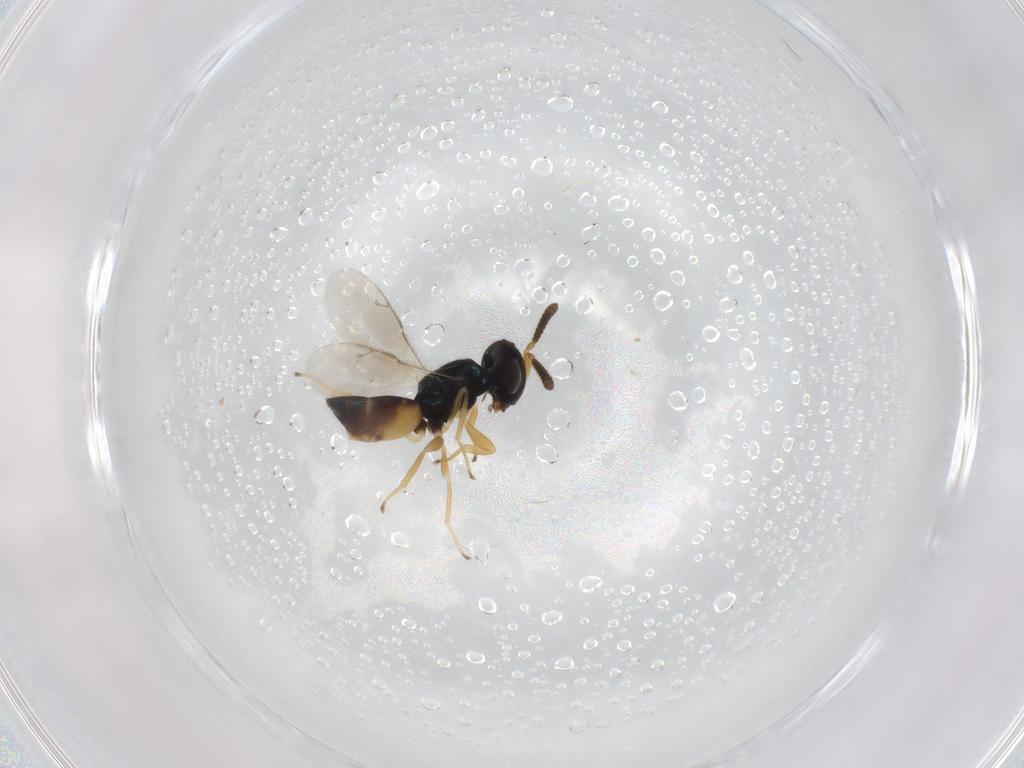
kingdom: Animalia
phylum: Arthropoda
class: Insecta
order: Hymenoptera
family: Pteromalidae
